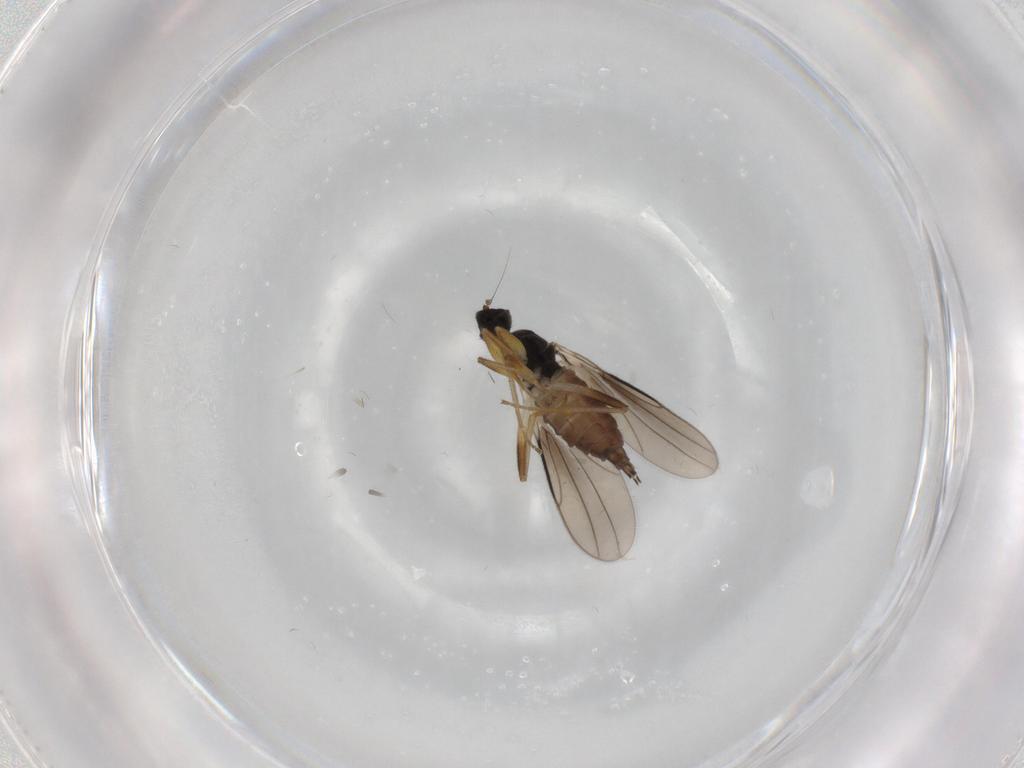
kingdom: Animalia
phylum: Arthropoda
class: Insecta
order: Diptera
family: Hybotidae
